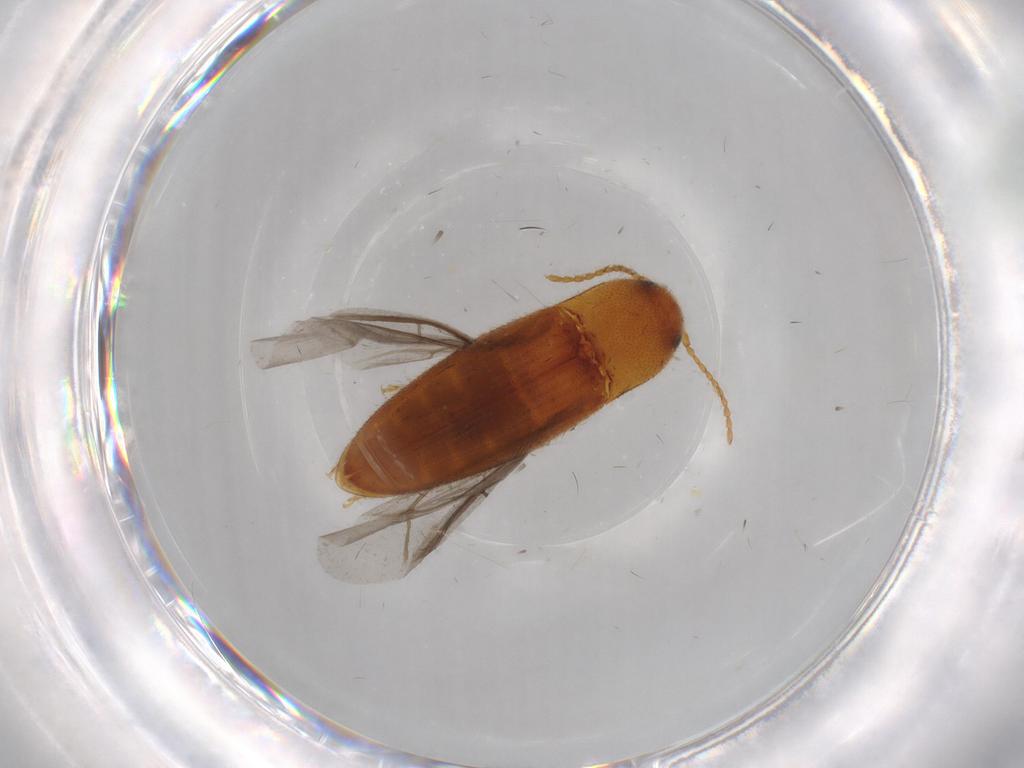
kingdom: Animalia
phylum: Arthropoda
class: Insecta
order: Coleoptera
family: Elateridae
